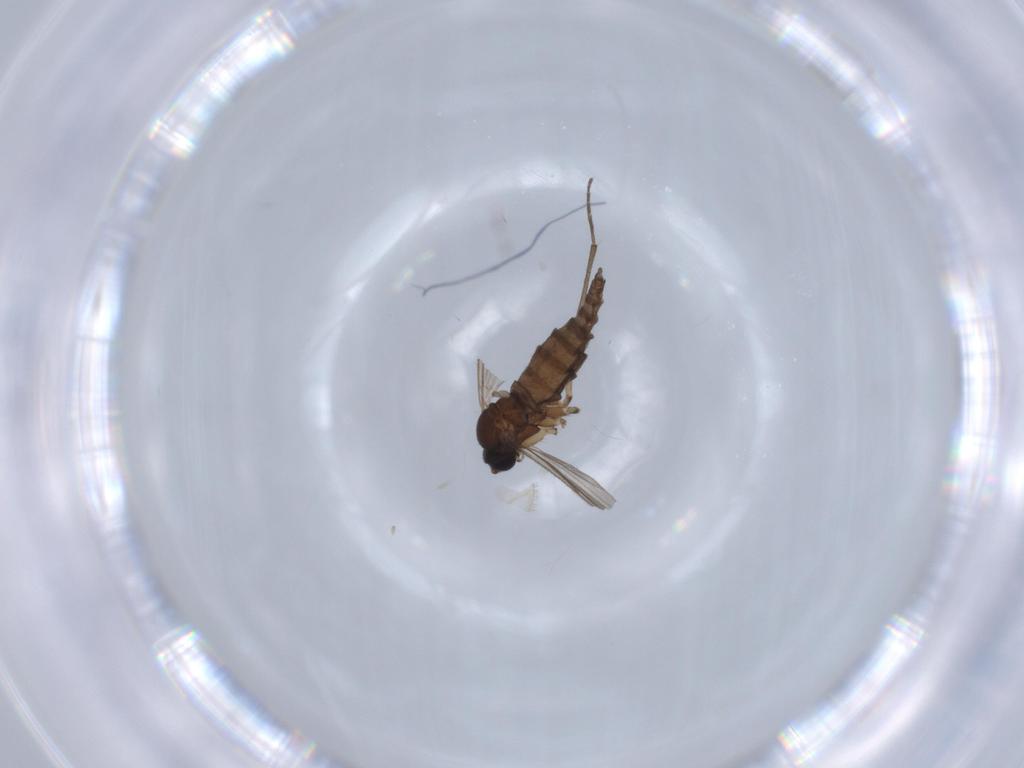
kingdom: Animalia
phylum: Arthropoda
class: Insecta
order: Diptera
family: Sciaridae
